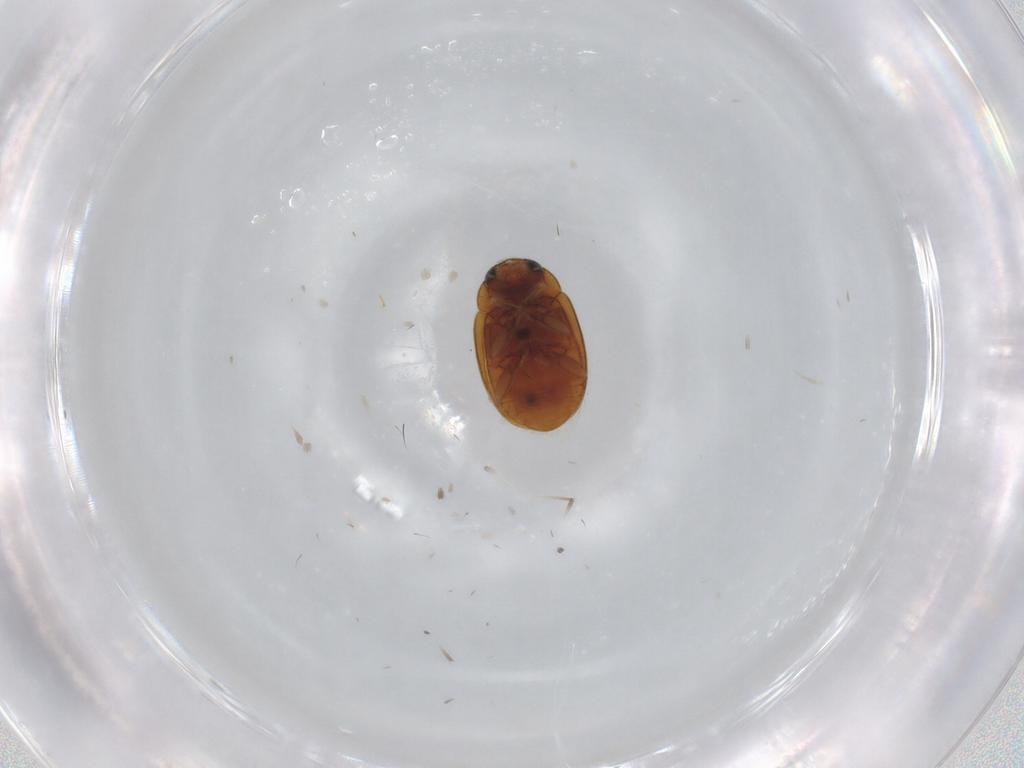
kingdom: Animalia
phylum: Arthropoda
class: Insecta
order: Coleoptera
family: Coccinellidae
